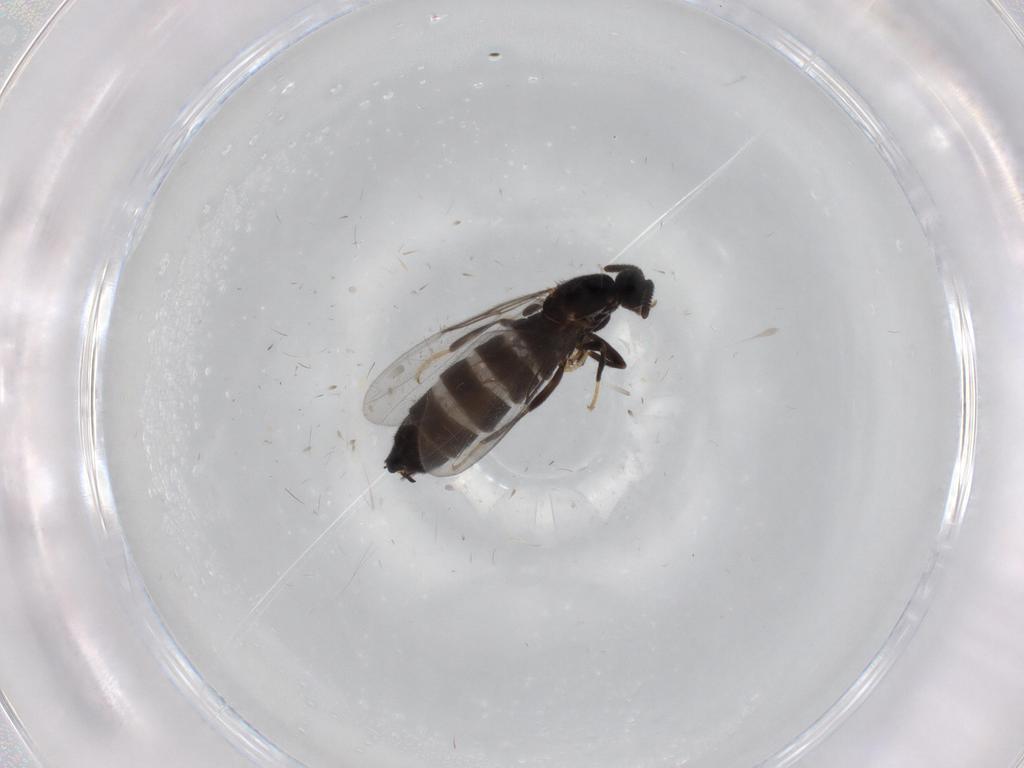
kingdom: Animalia
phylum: Arthropoda
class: Insecta
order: Diptera
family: Scatopsidae
